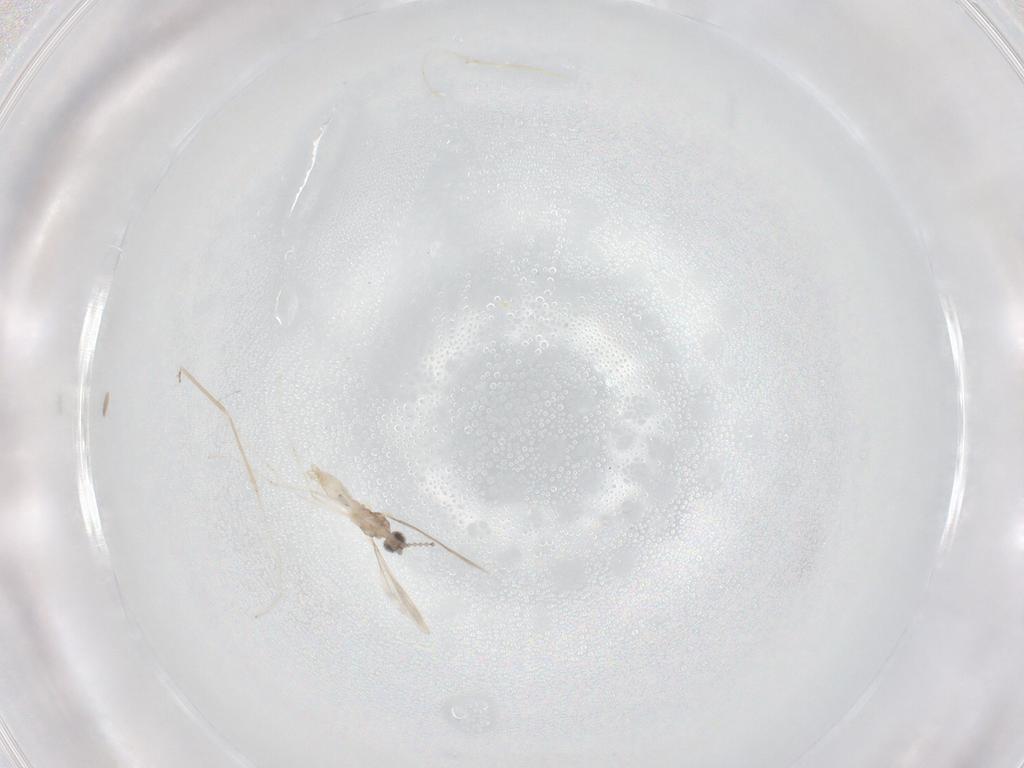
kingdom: Animalia
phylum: Arthropoda
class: Insecta
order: Diptera
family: Cecidomyiidae
